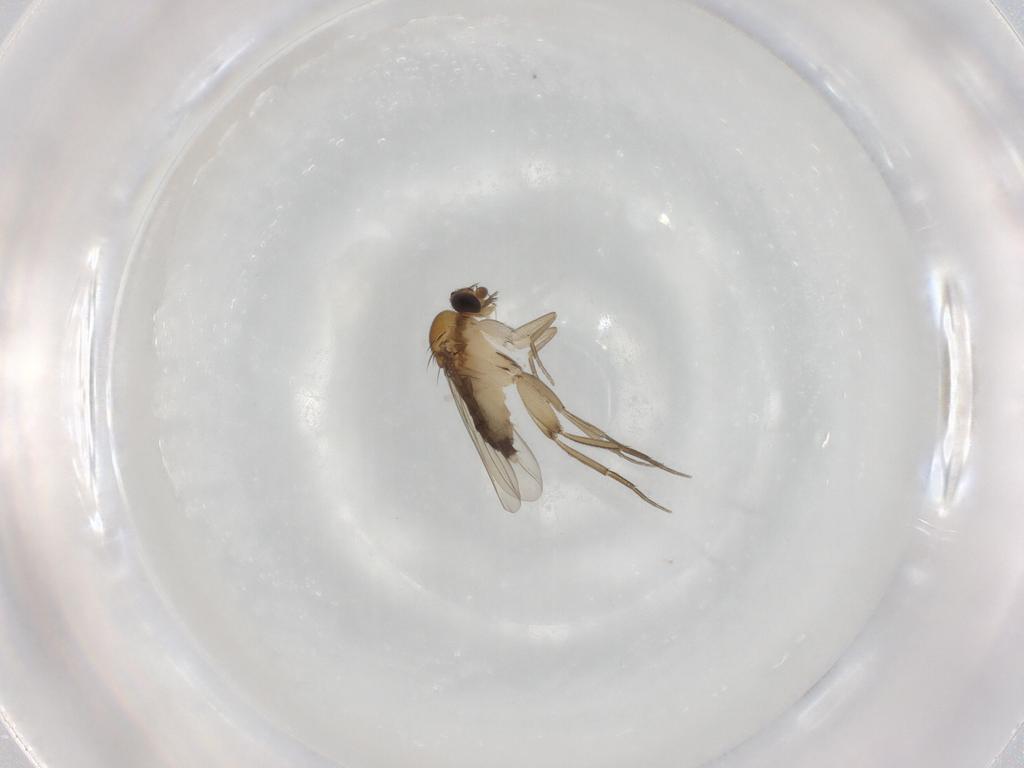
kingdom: Animalia
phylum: Arthropoda
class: Insecta
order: Diptera
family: Phoridae
